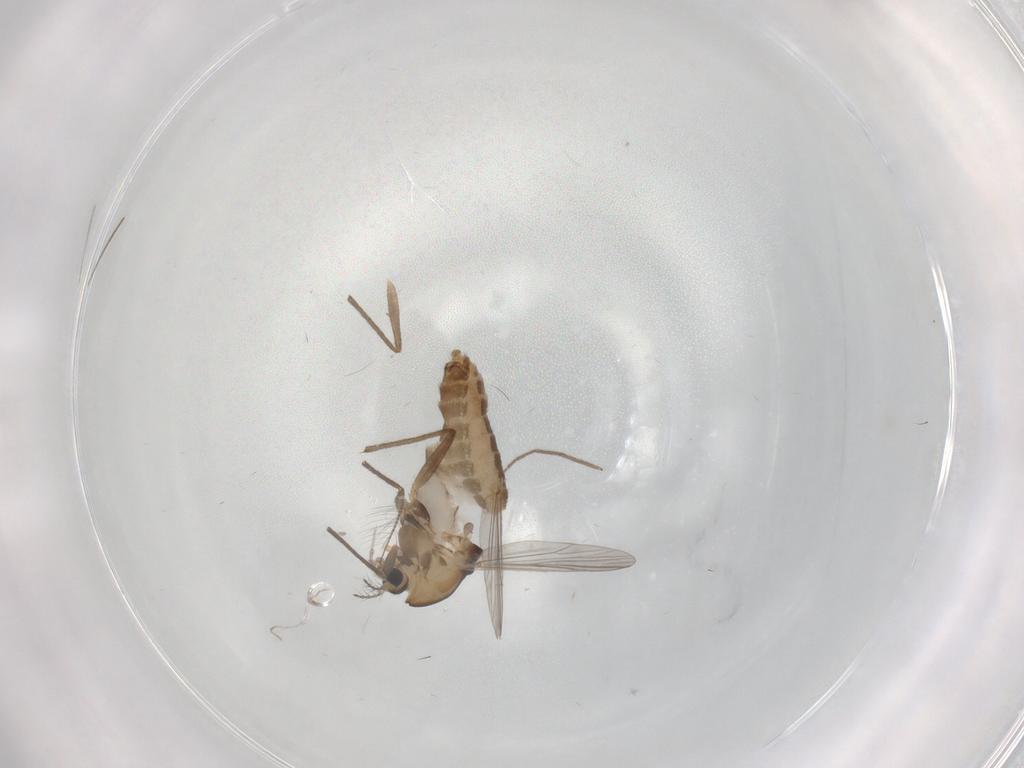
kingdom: Animalia
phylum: Arthropoda
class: Insecta
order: Diptera
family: Chironomidae
